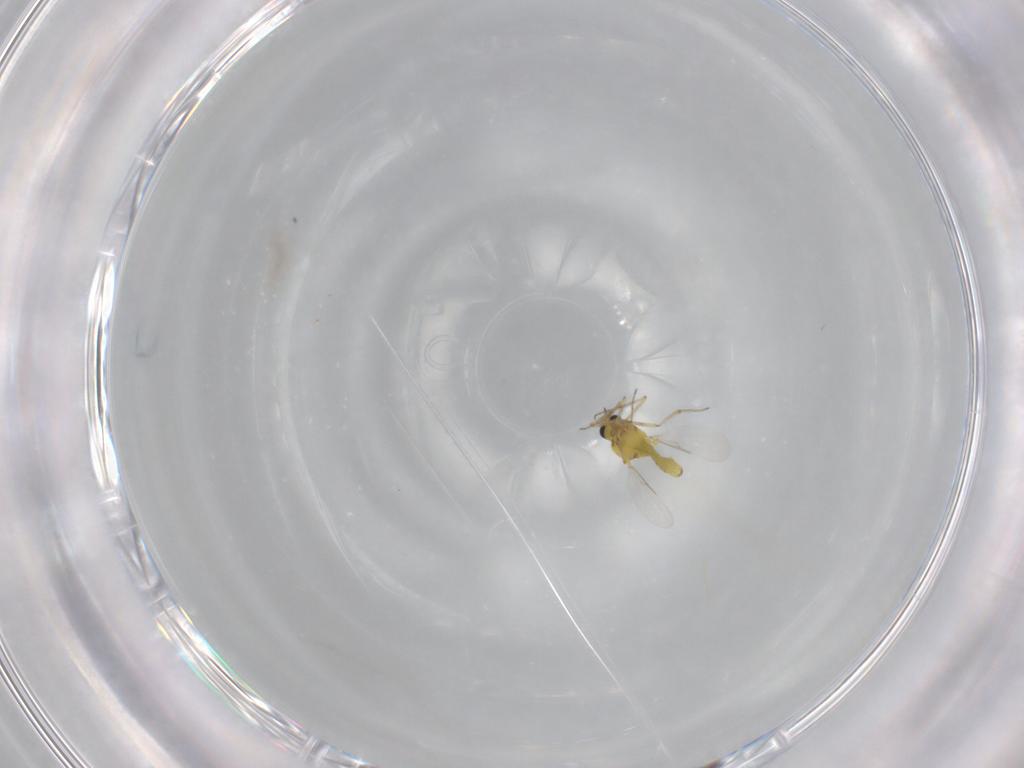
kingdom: Animalia
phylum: Arthropoda
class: Insecta
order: Diptera
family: Ceratopogonidae
